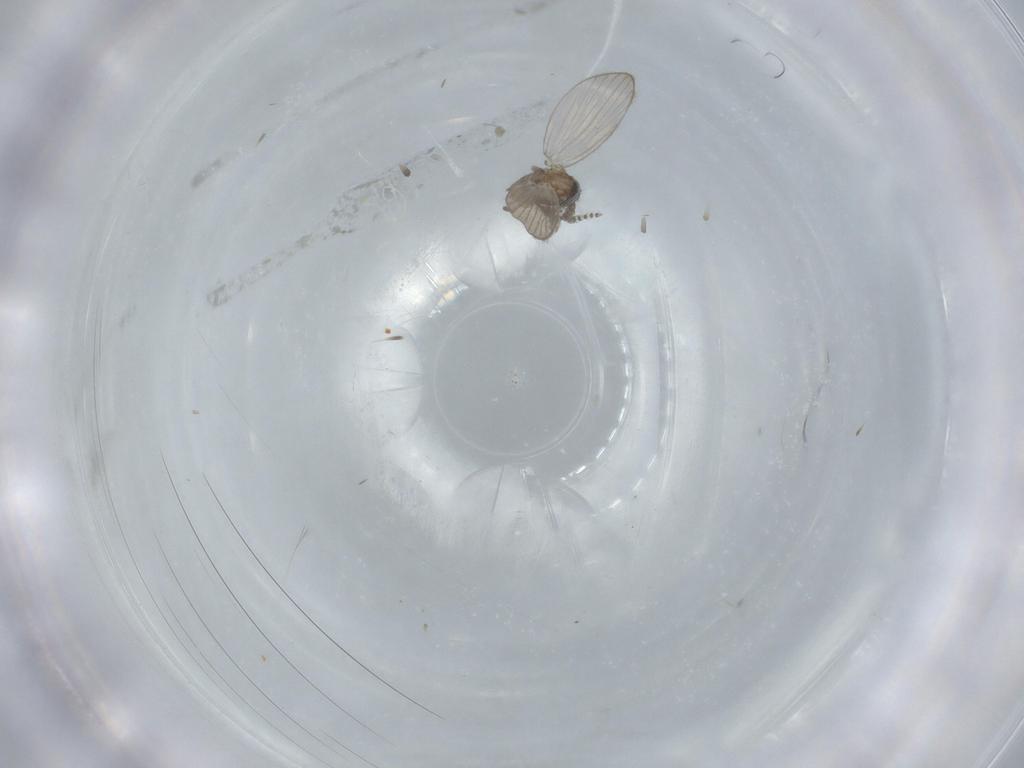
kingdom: Animalia
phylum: Arthropoda
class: Insecta
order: Diptera
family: Phoridae
